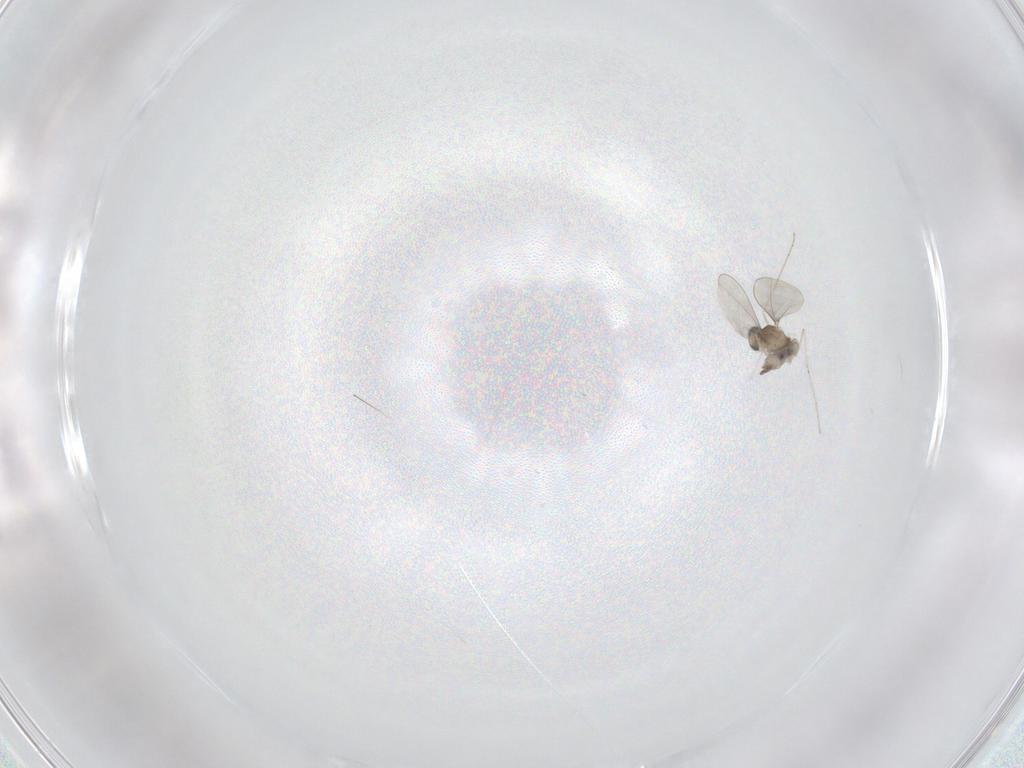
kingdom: Animalia
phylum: Arthropoda
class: Insecta
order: Diptera
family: Cecidomyiidae
